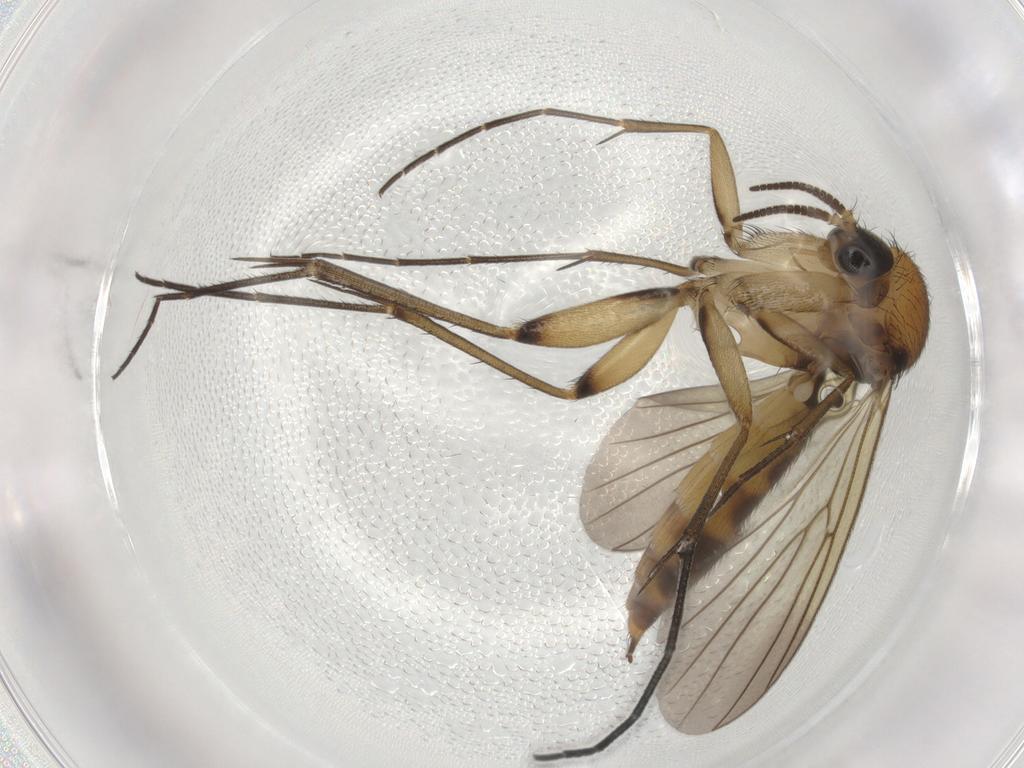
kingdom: Animalia
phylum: Arthropoda
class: Insecta
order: Diptera
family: Mycetophilidae
